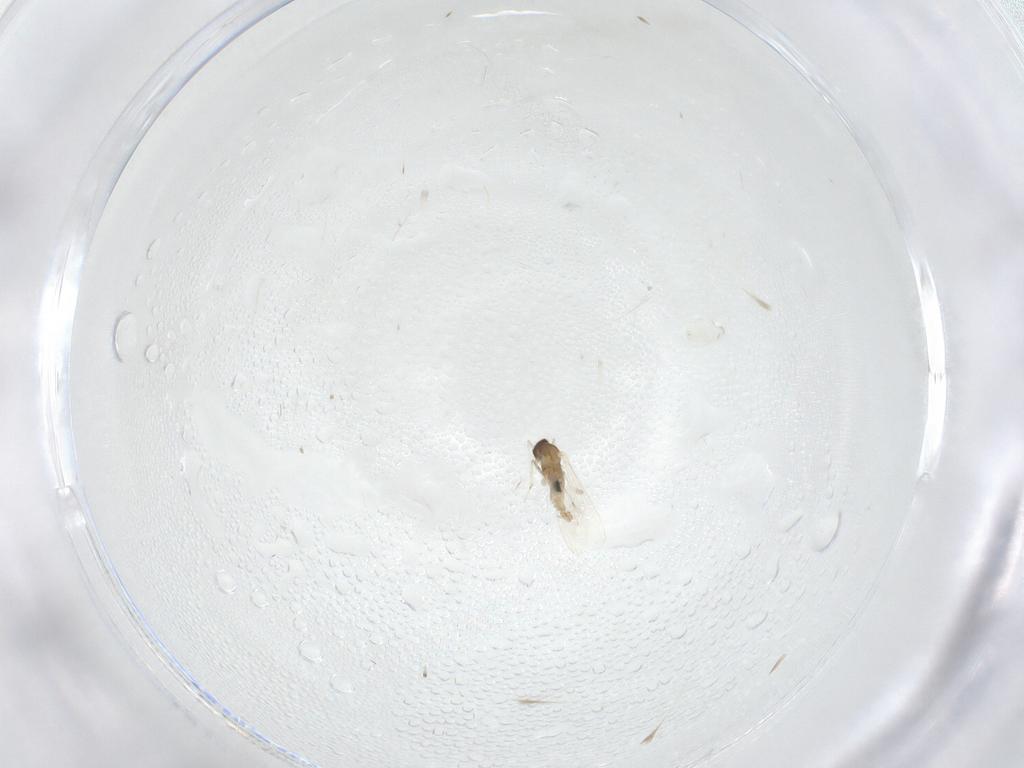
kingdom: Animalia
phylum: Arthropoda
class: Insecta
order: Diptera
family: Cecidomyiidae
